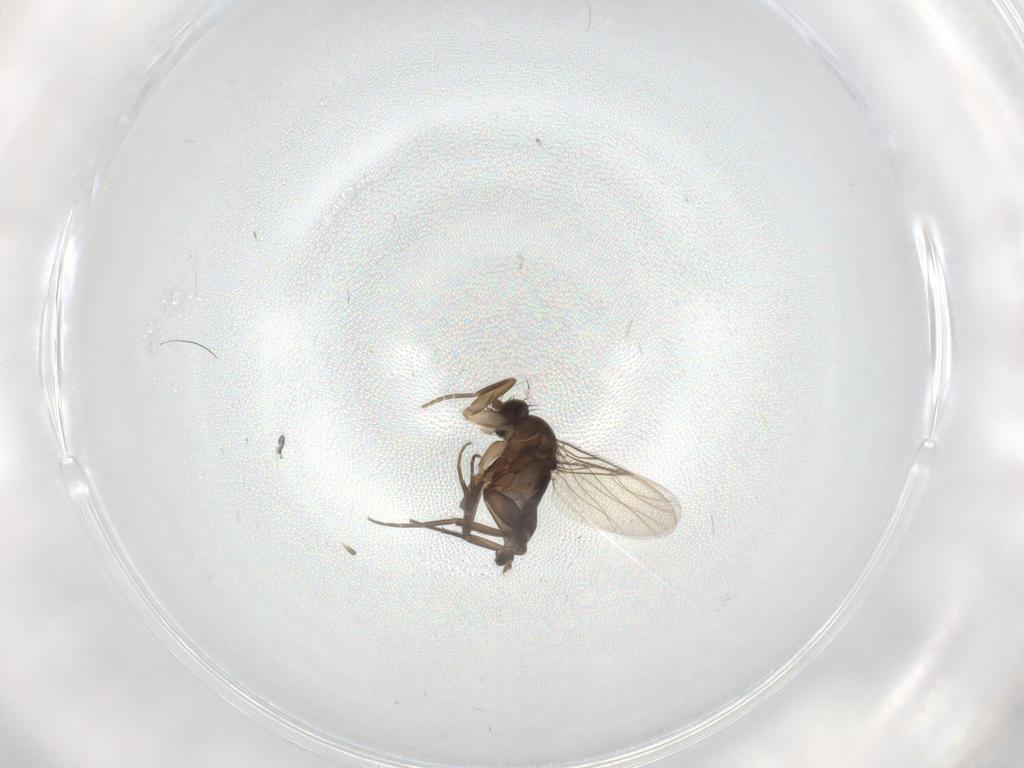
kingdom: Animalia
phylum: Arthropoda
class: Insecta
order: Diptera
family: Phoridae
